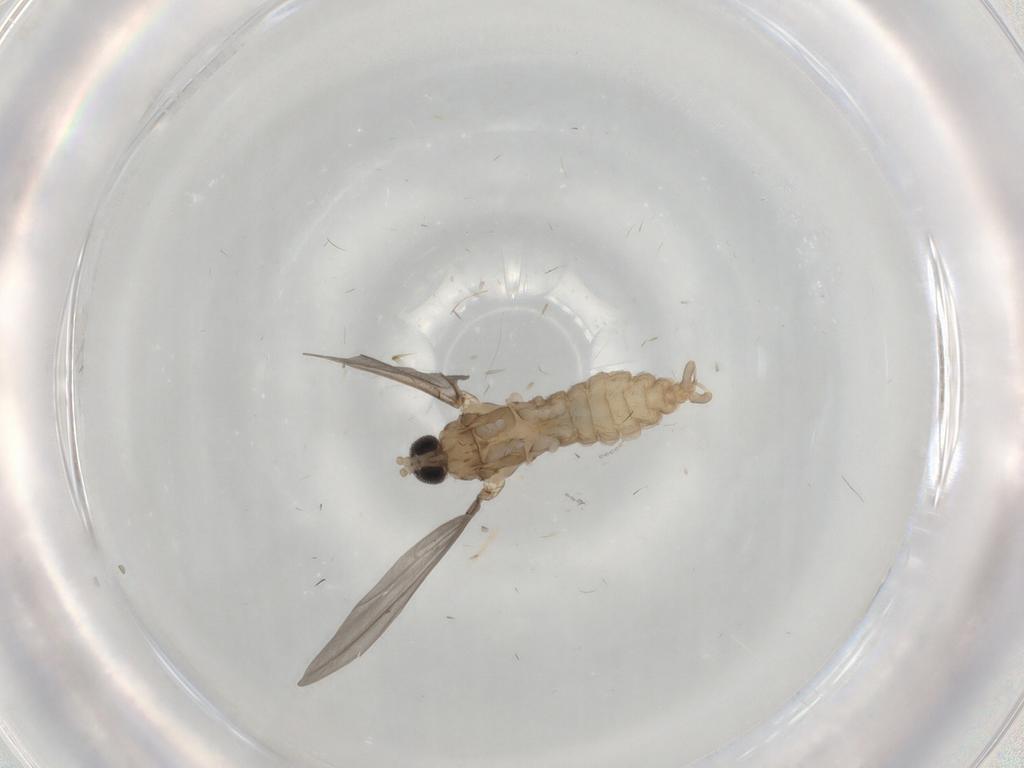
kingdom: Animalia
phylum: Arthropoda
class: Insecta
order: Diptera
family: Cecidomyiidae
